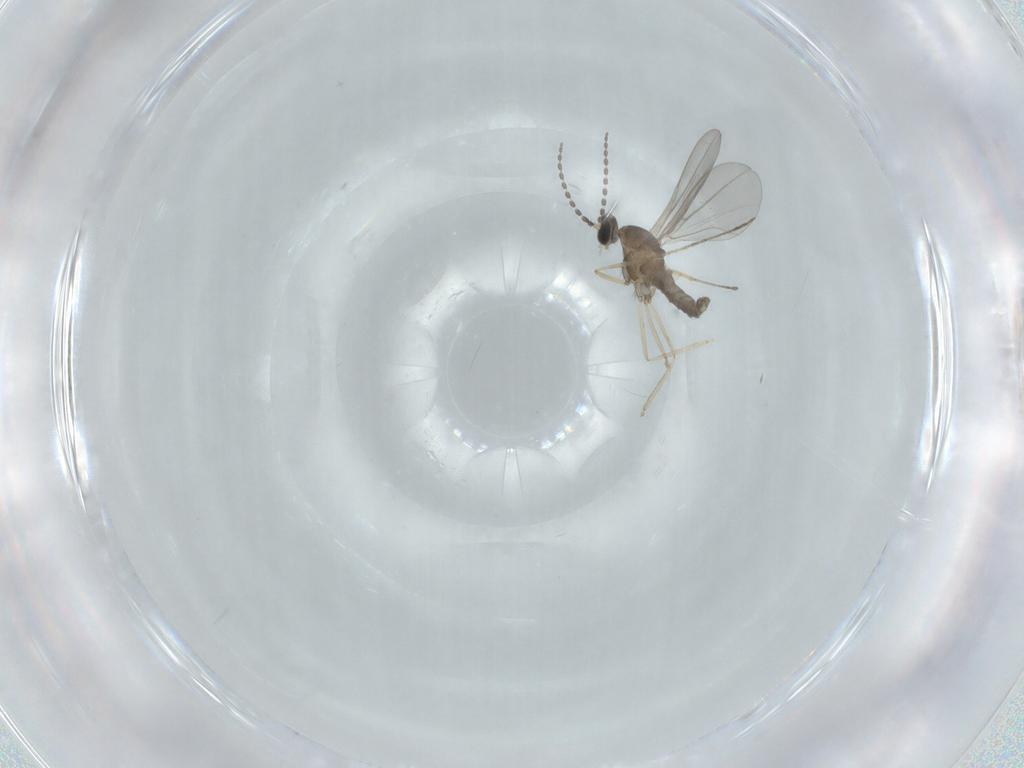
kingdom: Animalia
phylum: Arthropoda
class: Insecta
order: Diptera
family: Cecidomyiidae
